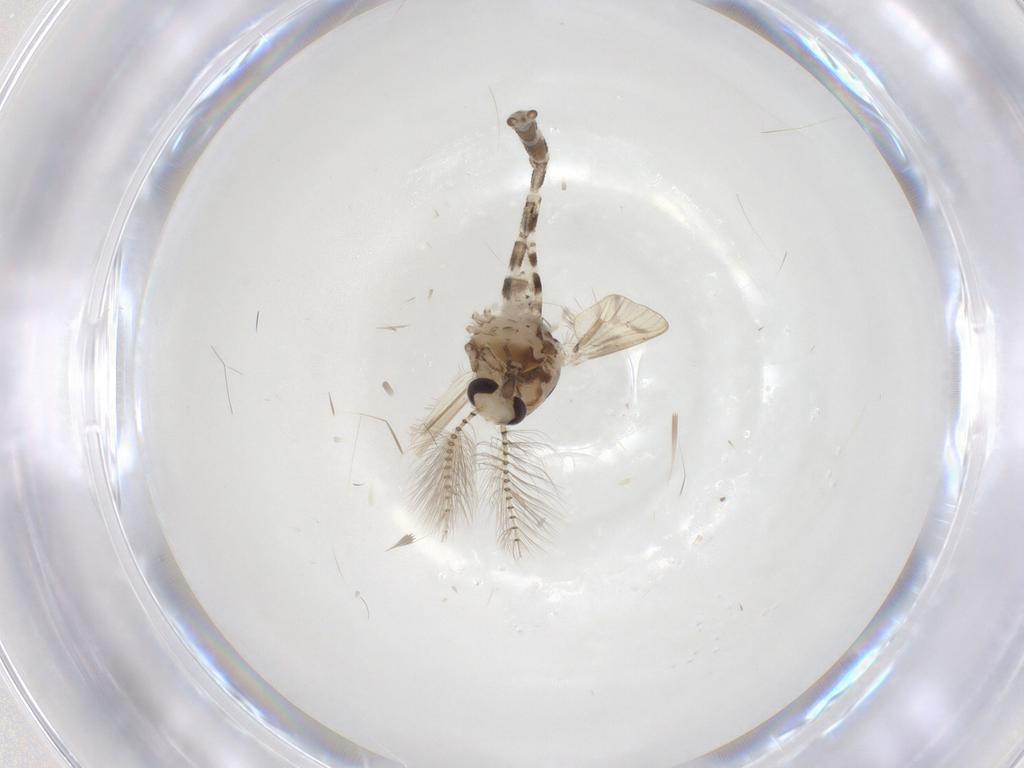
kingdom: Animalia
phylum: Arthropoda
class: Insecta
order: Diptera
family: Chaoboridae
